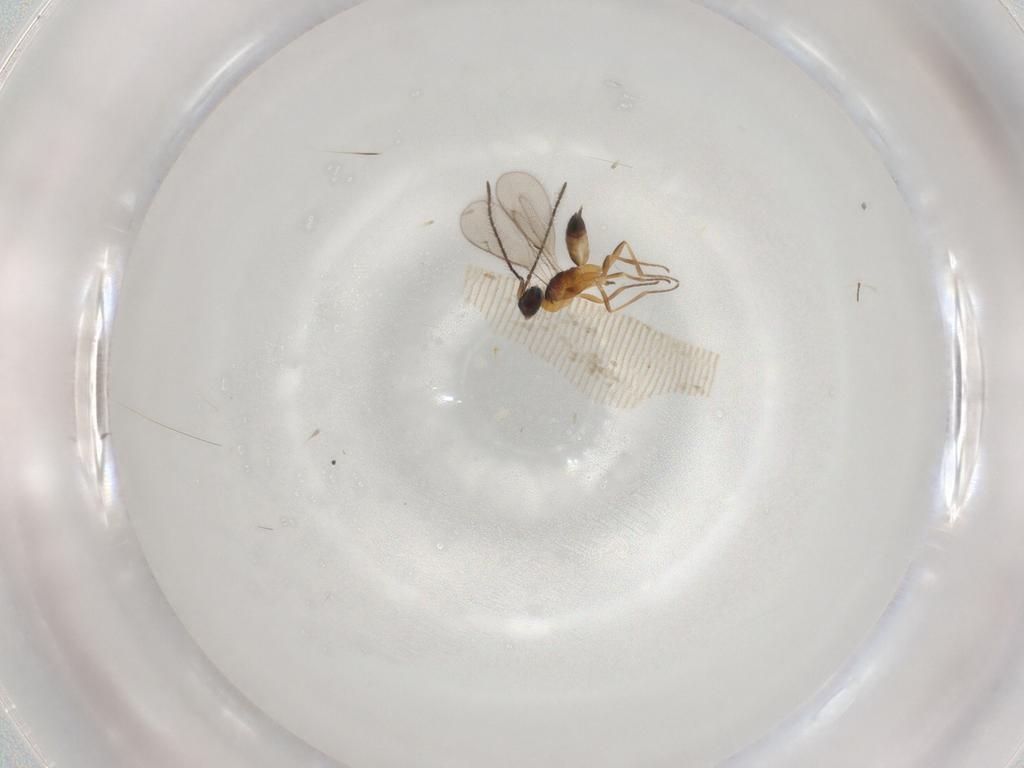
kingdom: Animalia
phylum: Arthropoda
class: Insecta
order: Hymenoptera
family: Eupelmidae
